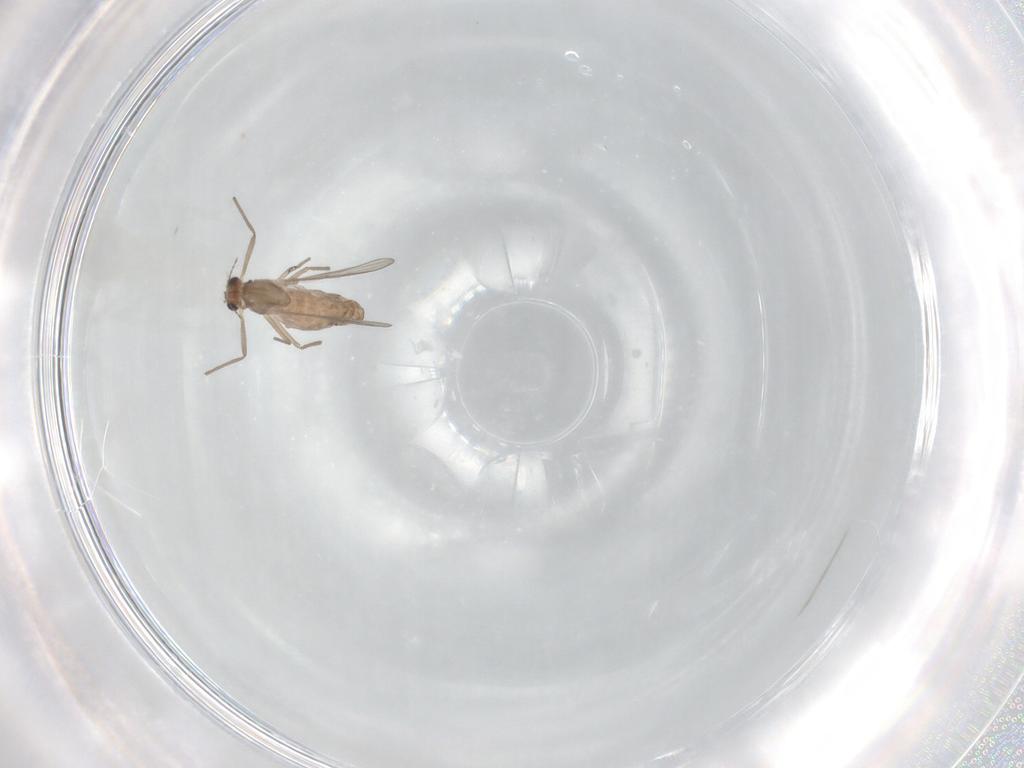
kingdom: Animalia
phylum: Arthropoda
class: Insecta
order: Diptera
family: Chironomidae
